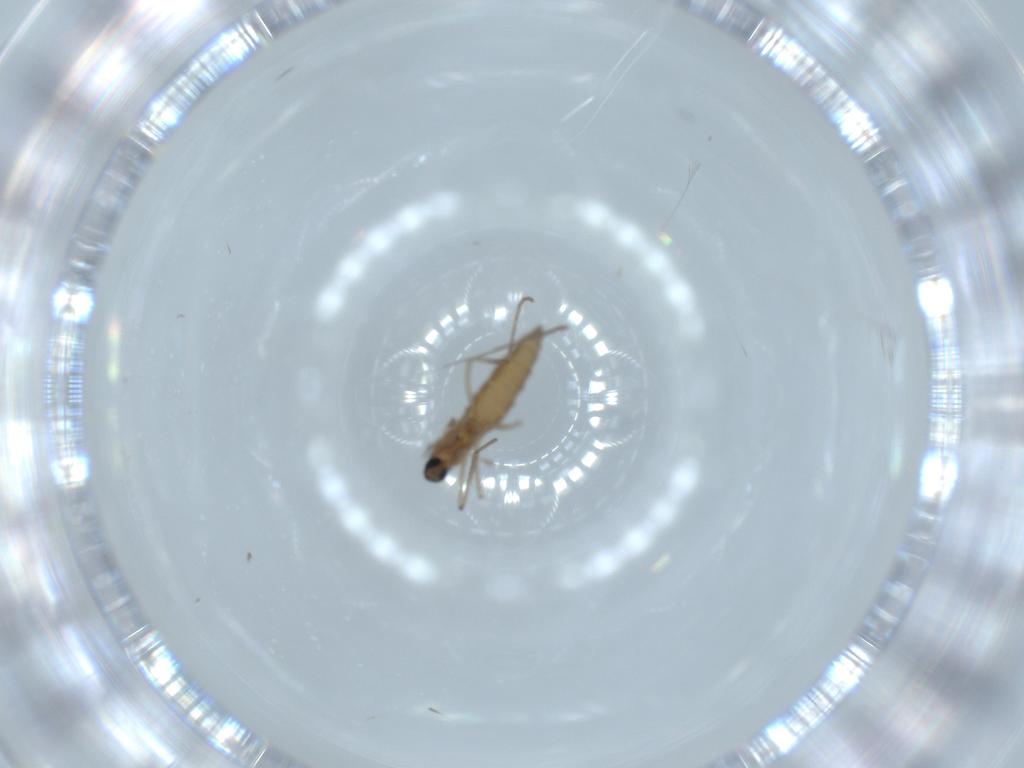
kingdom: Animalia
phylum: Arthropoda
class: Insecta
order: Diptera
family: Cecidomyiidae
